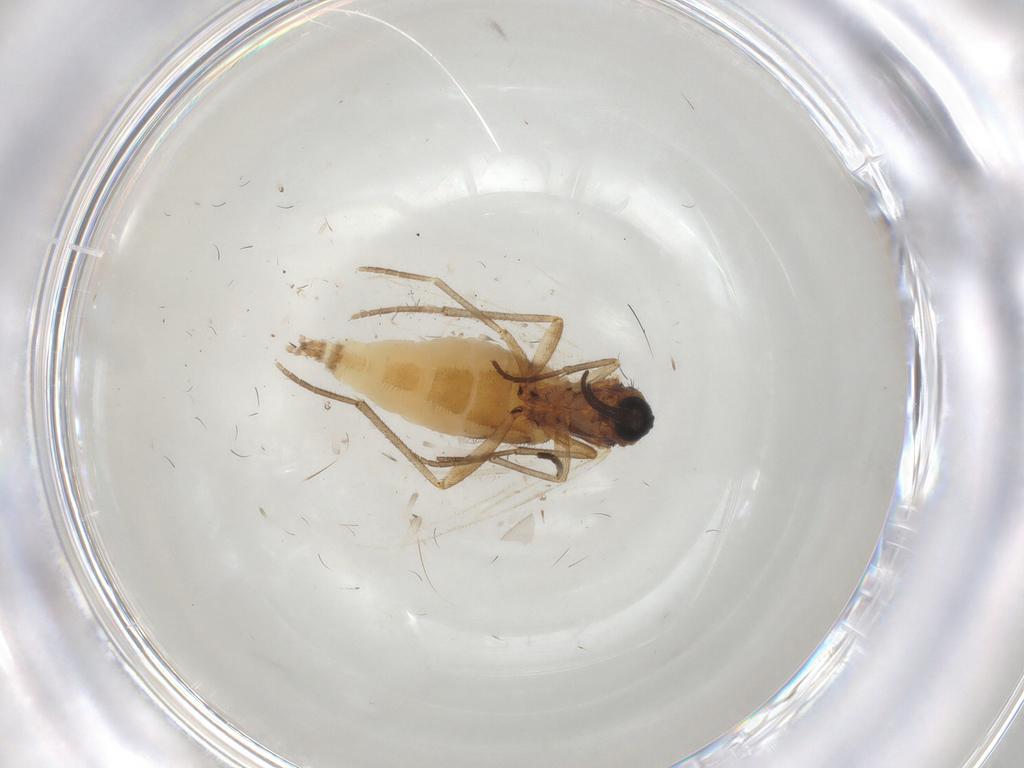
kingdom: Animalia
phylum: Arthropoda
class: Insecta
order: Diptera
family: Sciaridae
